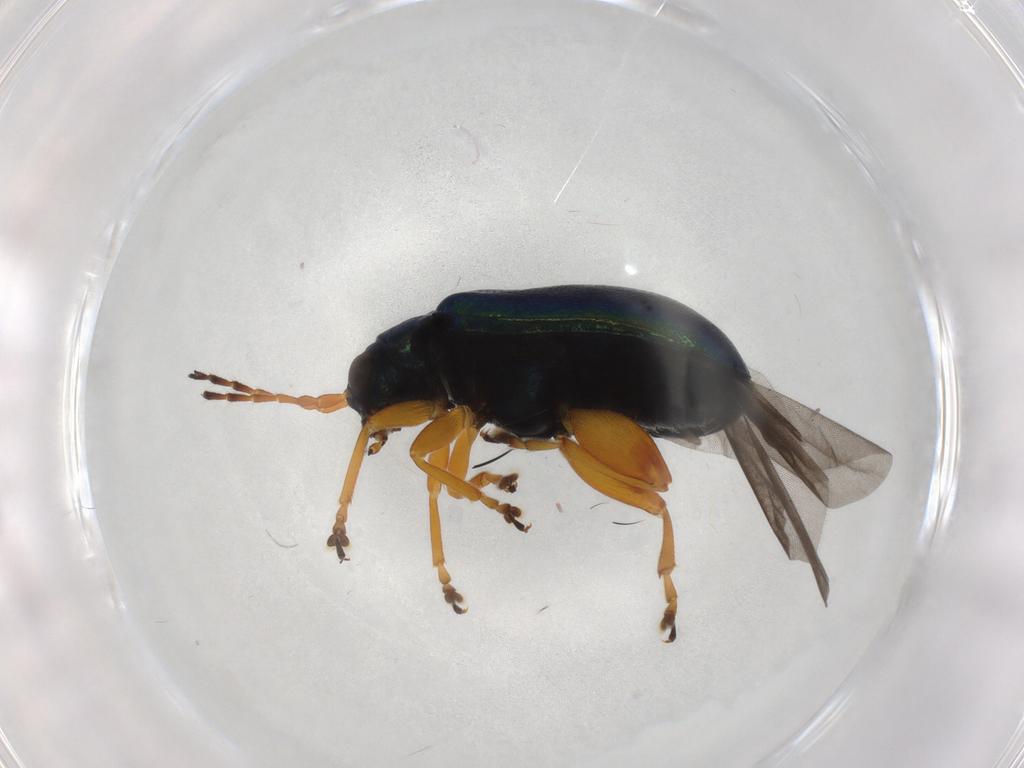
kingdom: Animalia
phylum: Arthropoda
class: Insecta
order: Coleoptera
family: Chrysomelidae
